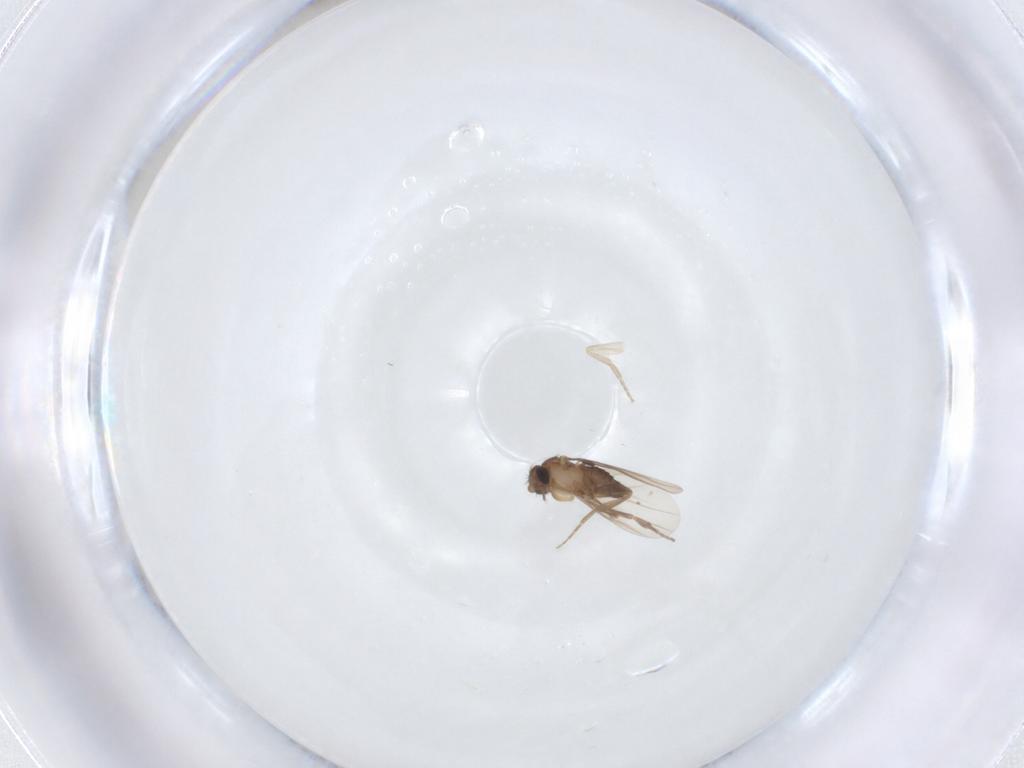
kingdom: Animalia
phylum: Arthropoda
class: Insecta
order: Diptera
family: Phoridae
